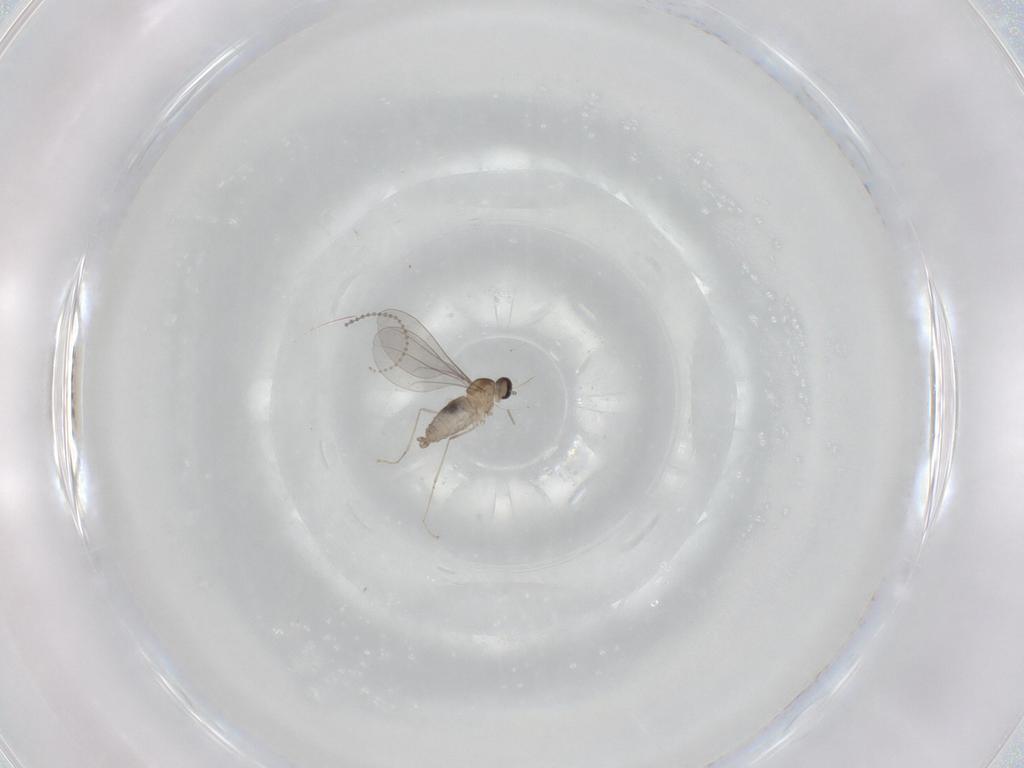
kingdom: Animalia
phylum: Arthropoda
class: Insecta
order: Diptera
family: Cecidomyiidae
